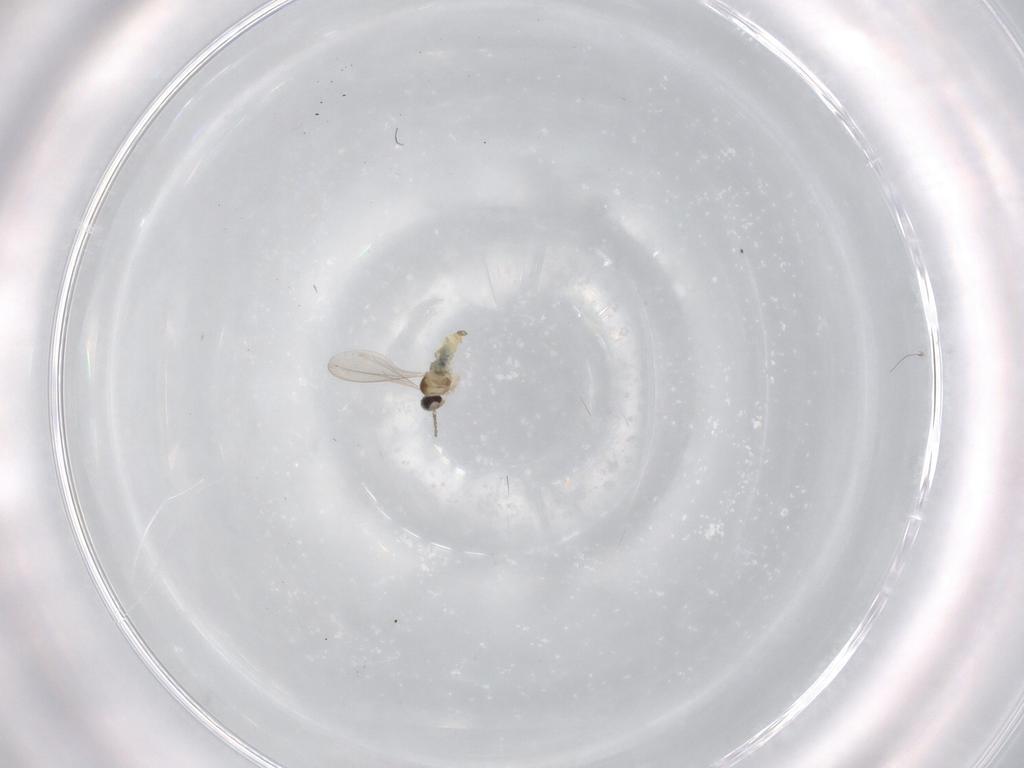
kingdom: Animalia
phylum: Arthropoda
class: Insecta
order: Diptera
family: Cecidomyiidae
